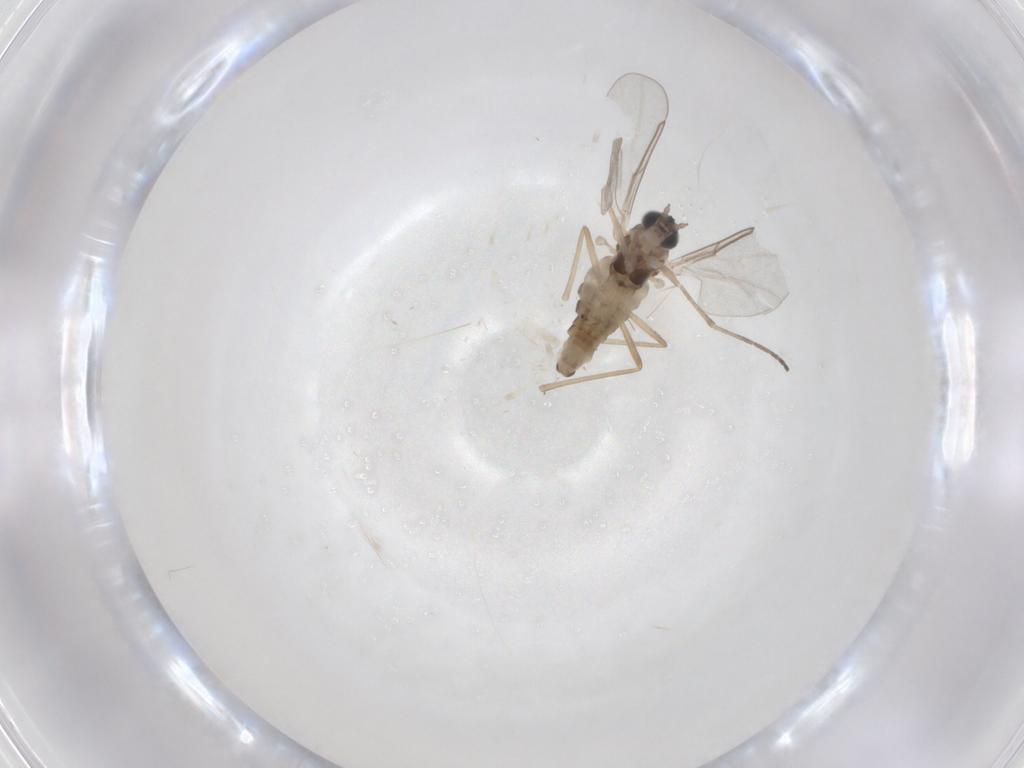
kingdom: Animalia
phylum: Arthropoda
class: Insecta
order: Diptera
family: Cecidomyiidae
